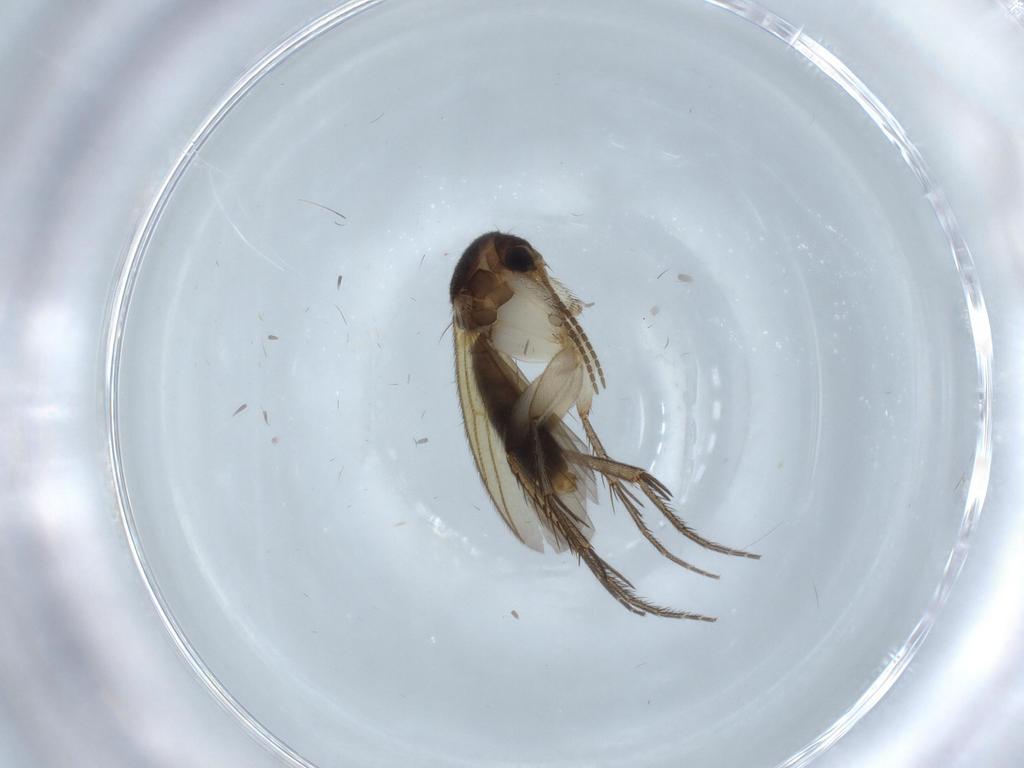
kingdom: Animalia
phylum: Arthropoda
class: Insecta
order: Diptera
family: Mycetophilidae
